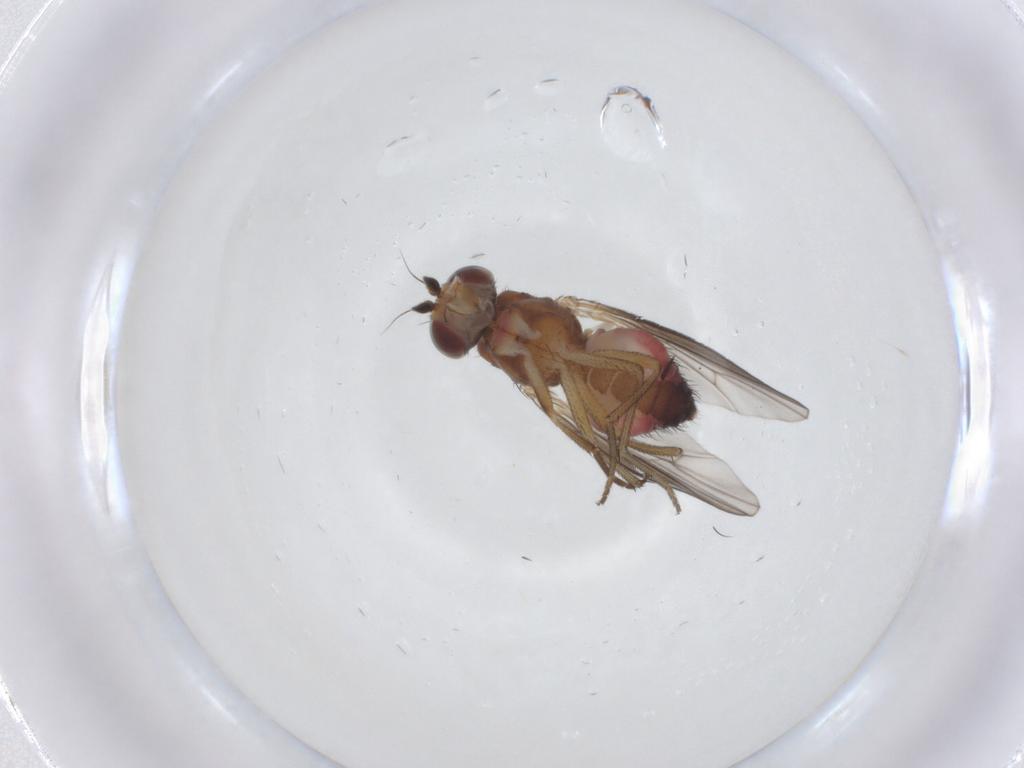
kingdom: Animalia
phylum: Arthropoda
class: Insecta
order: Diptera
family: Heleomyzidae
